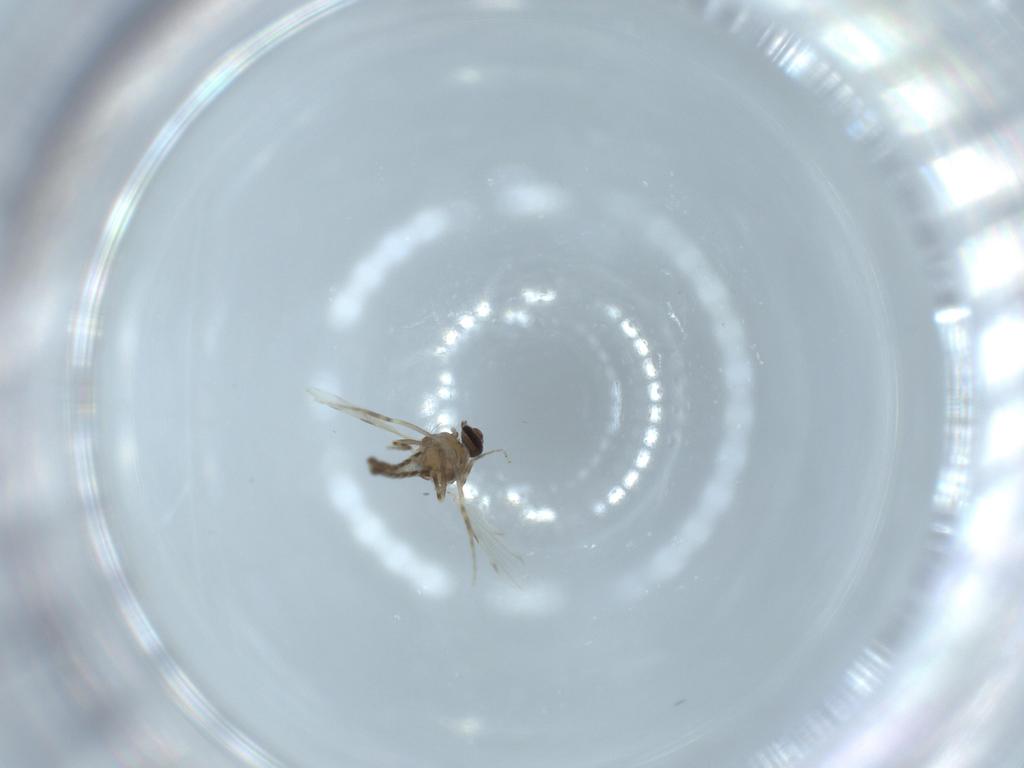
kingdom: Animalia
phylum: Arthropoda
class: Insecta
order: Diptera
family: Ceratopogonidae
